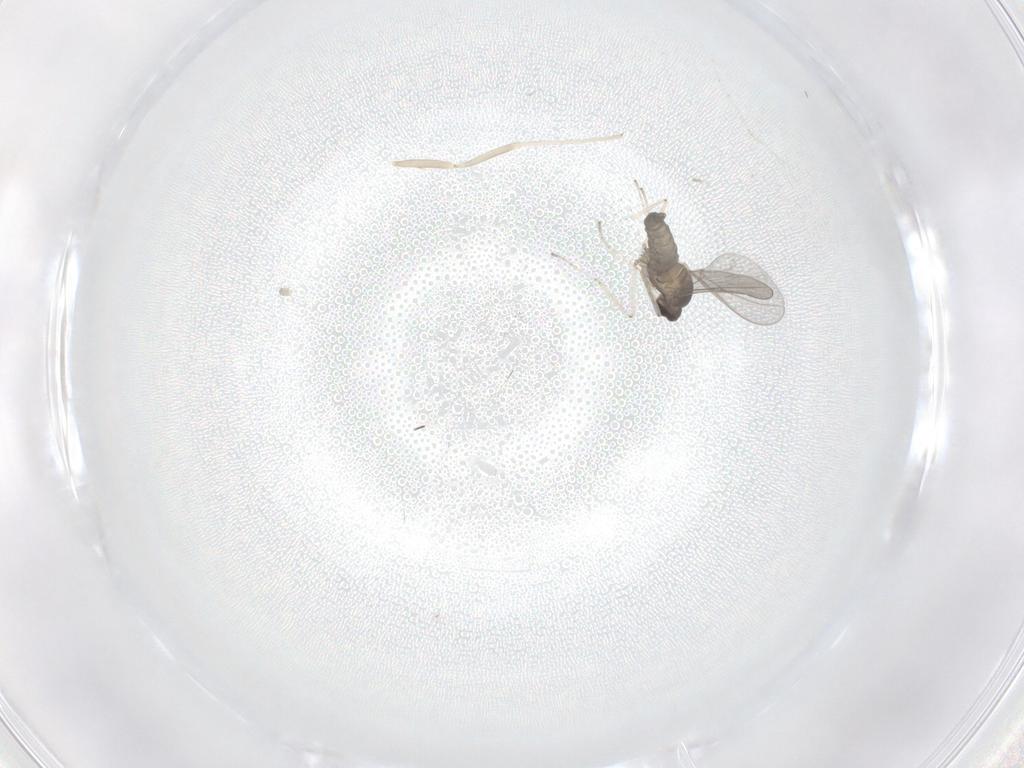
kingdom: Animalia
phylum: Arthropoda
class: Insecta
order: Diptera
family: Cecidomyiidae
